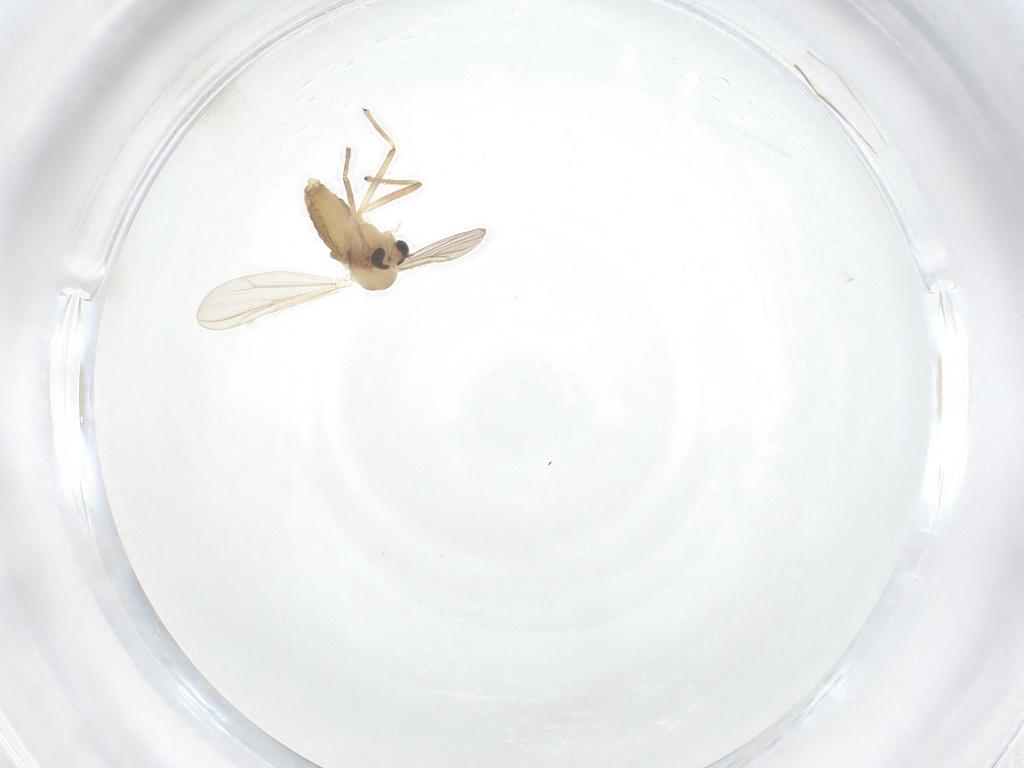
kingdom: Animalia
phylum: Arthropoda
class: Insecta
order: Diptera
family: Chironomidae
